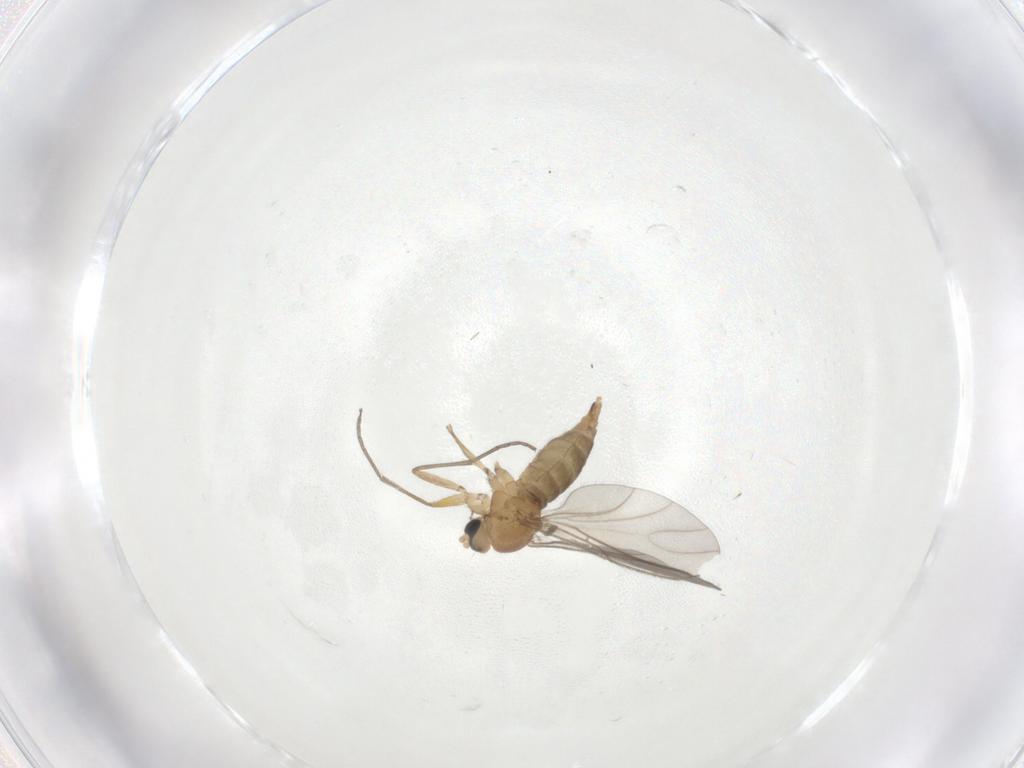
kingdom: Animalia
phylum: Arthropoda
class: Insecta
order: Diptera
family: Sciaridae
